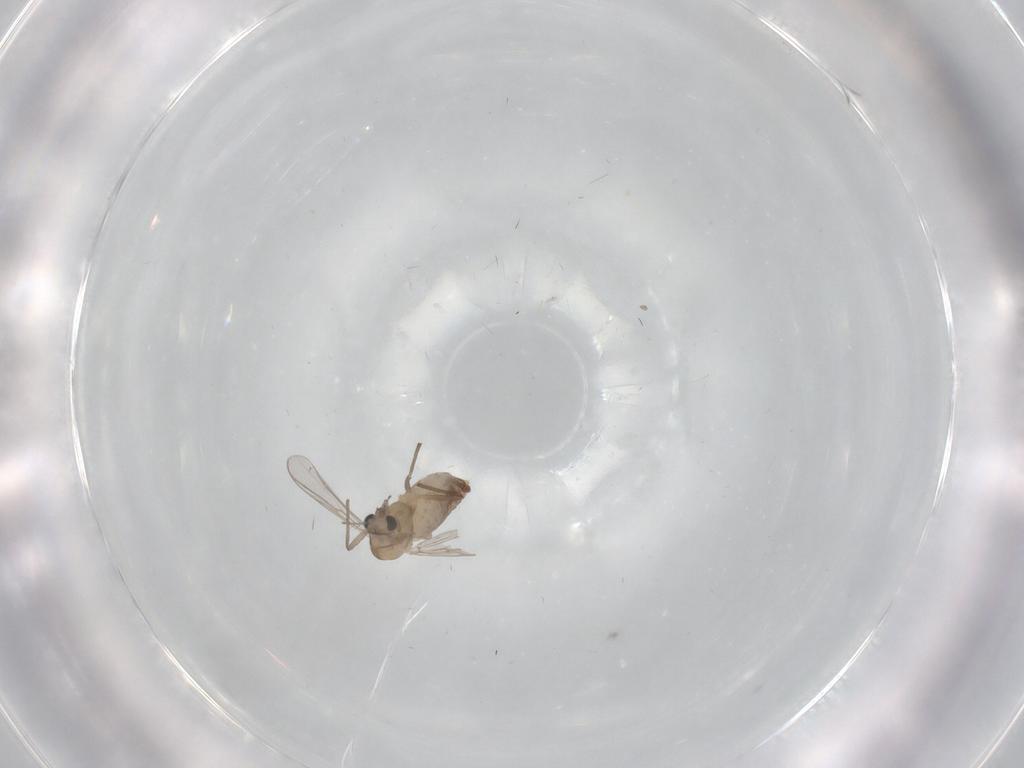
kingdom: Animalia
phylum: Arthropoda
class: Insecta
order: Diptera
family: Chironomidae
